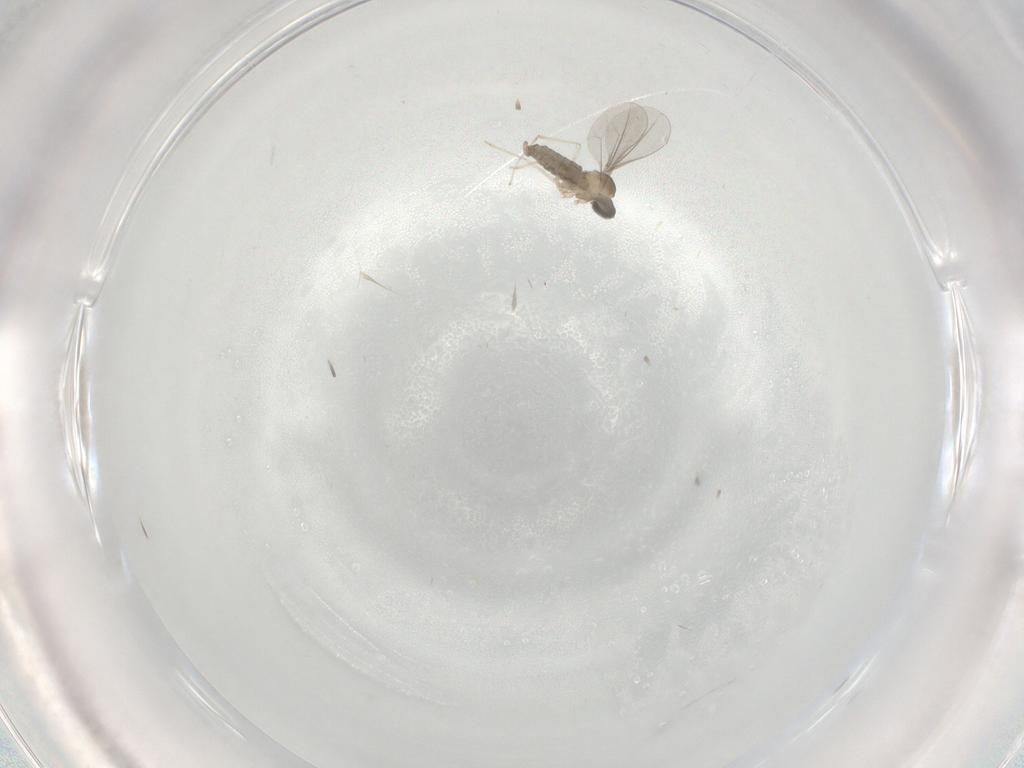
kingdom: Animalia
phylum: Arthropoda
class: Insecta
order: Diptera
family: Cecidomyiidae
